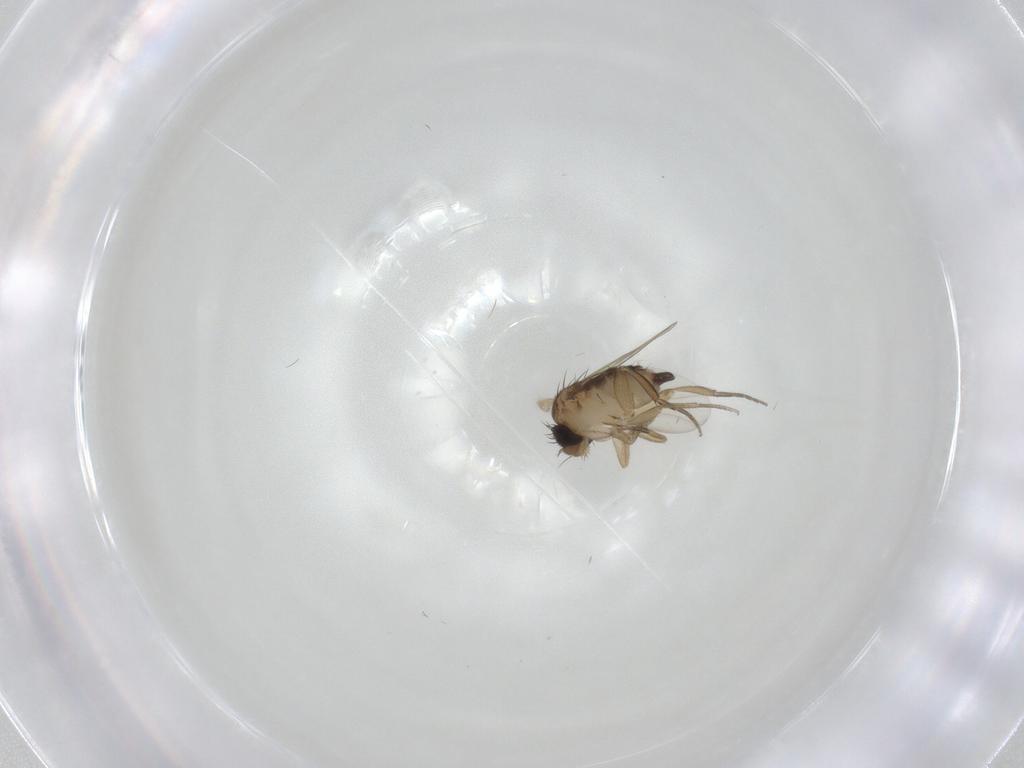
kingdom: Animalia
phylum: Arthropoda
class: Insecta
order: Diptera
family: Phoridae
